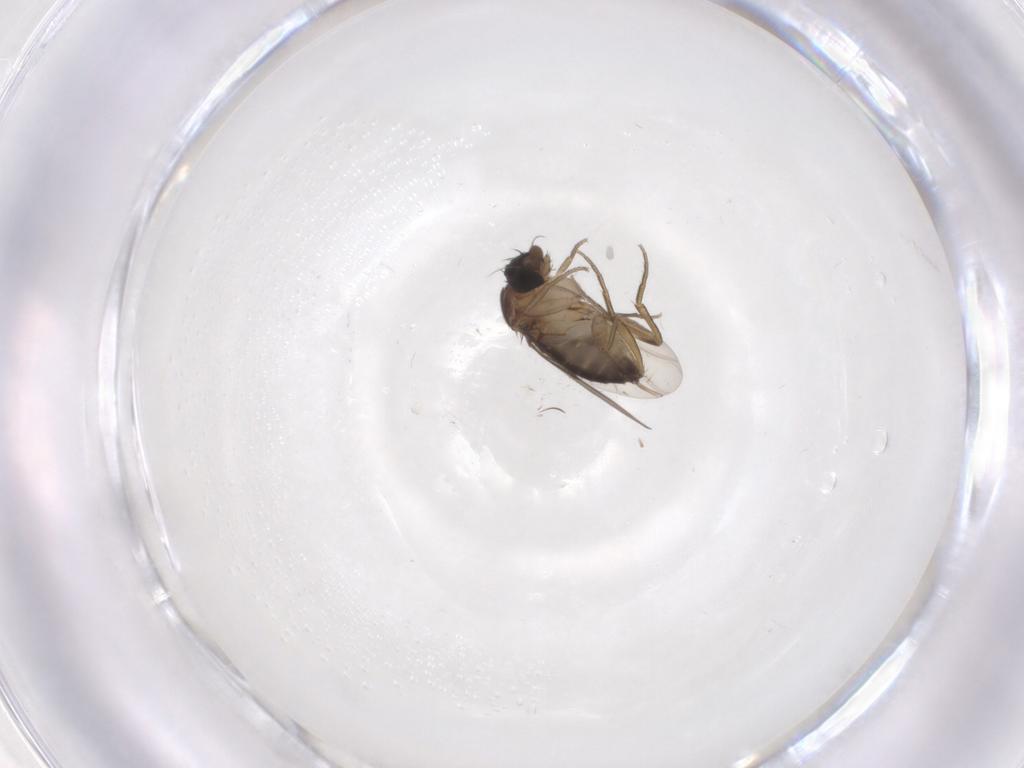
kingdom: Animalia
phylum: Arthropoda
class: Insecta
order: Diptera
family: Phoridae
